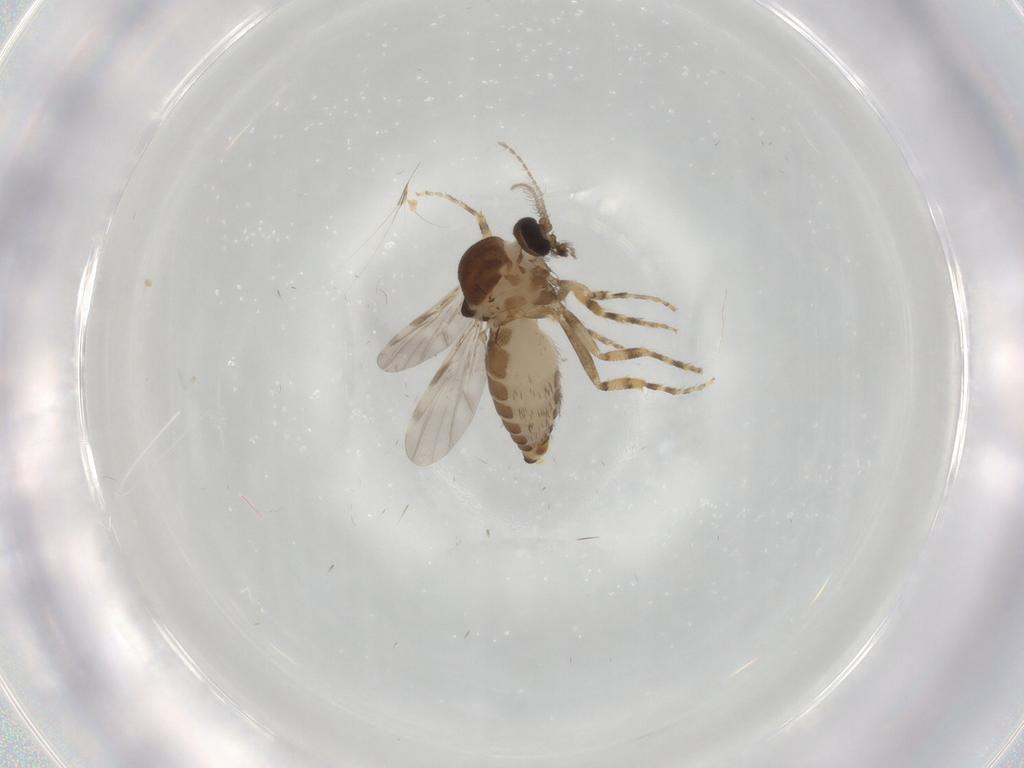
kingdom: Animalia
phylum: Arthropoda
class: Insecta
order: Diptera
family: Ceratopogonidae
